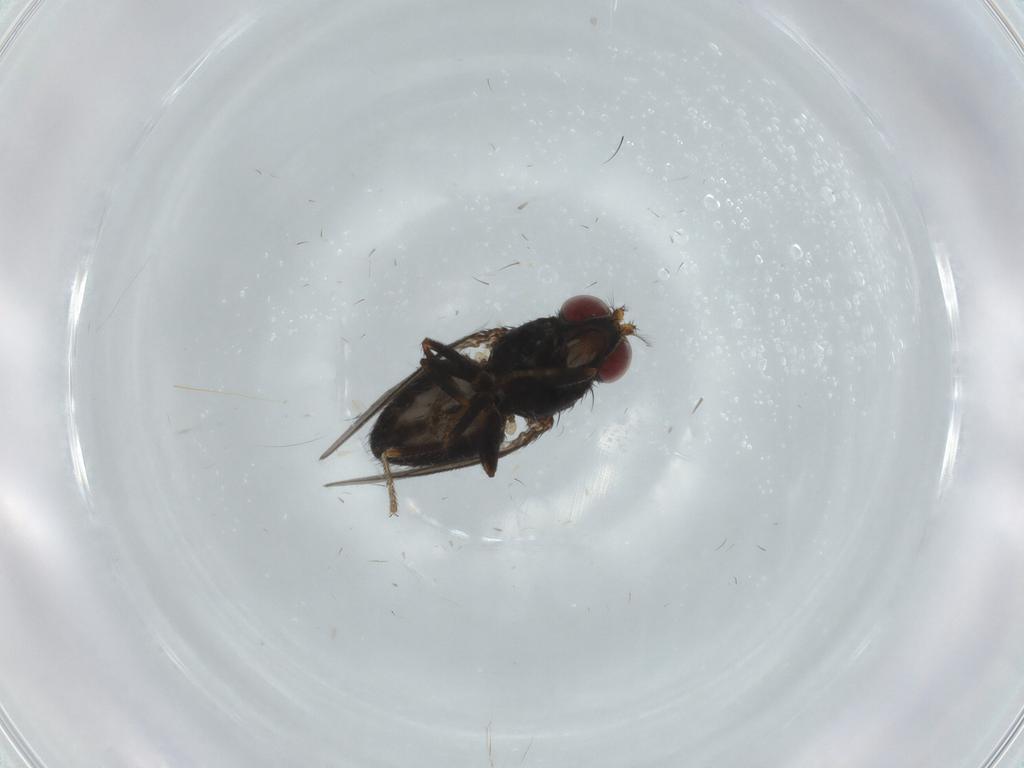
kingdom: Animalia
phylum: Arthropoda
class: Insecta
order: Diptera
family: Ephydridae
